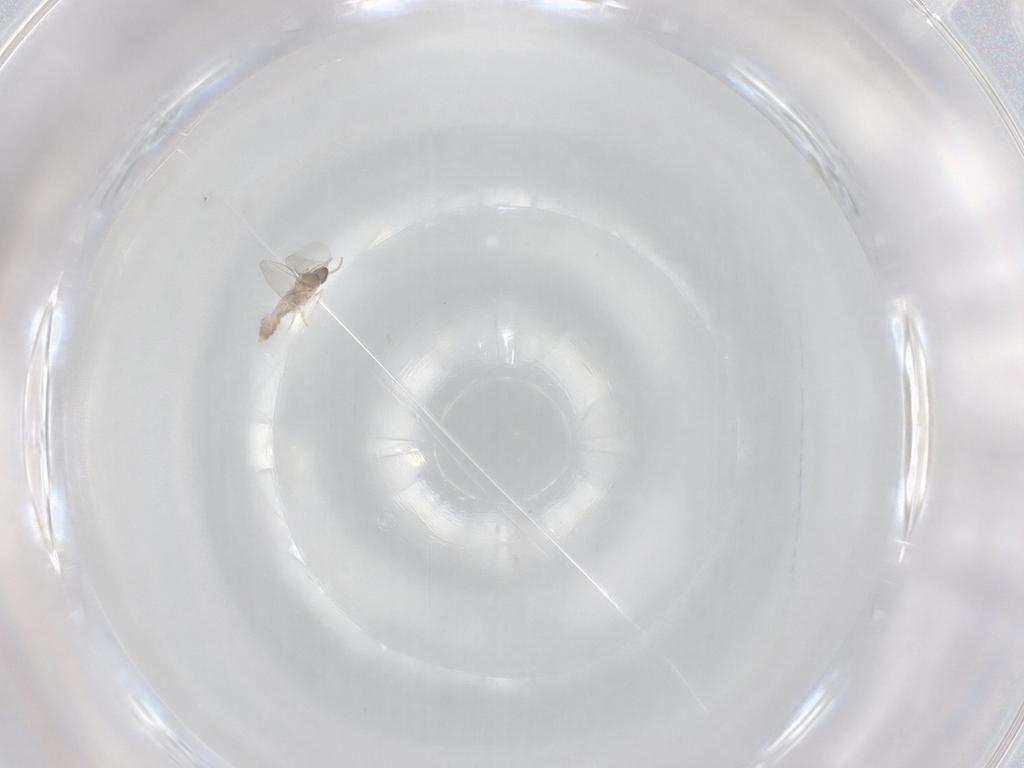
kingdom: Animalia
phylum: Arthropoda
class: Insecta
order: Diptera
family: Cecidomyiidae
